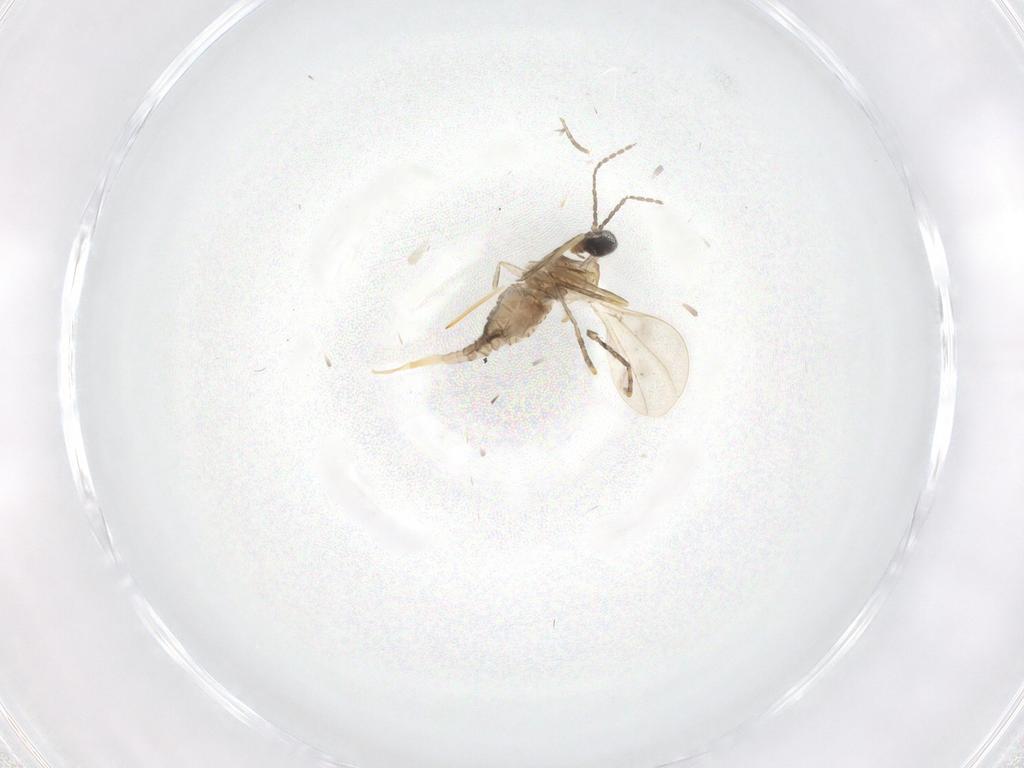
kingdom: Animalia
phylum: Arthropoda
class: Insecta
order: Diptera
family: Cecidomyiidae
